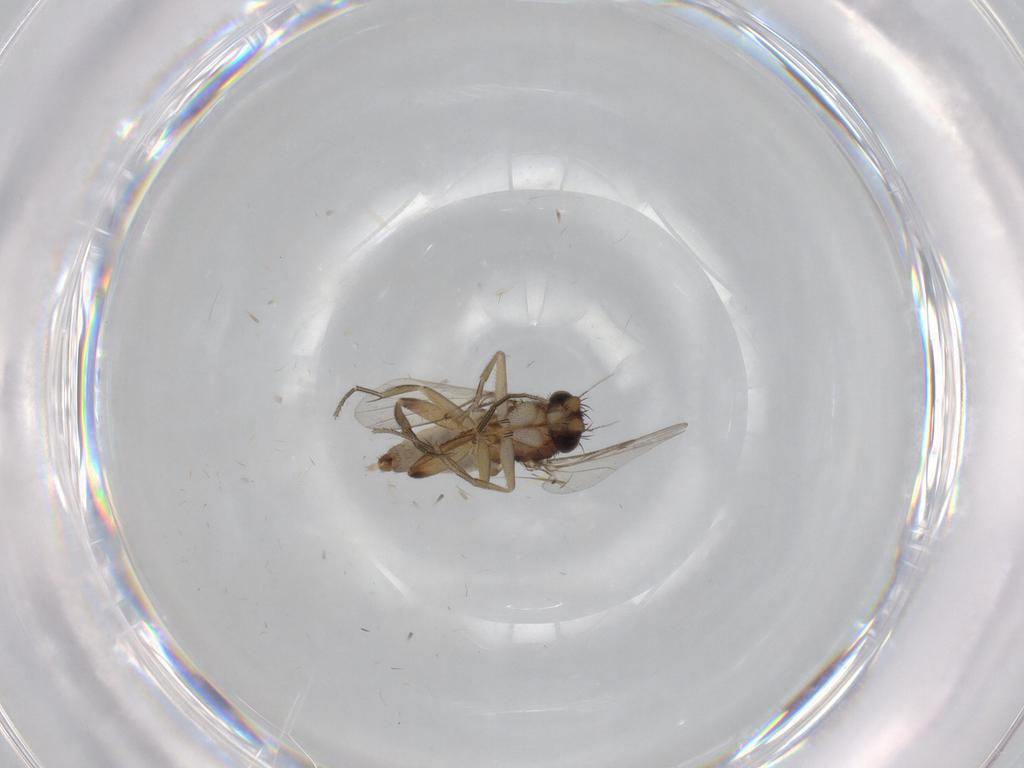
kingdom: Animalia
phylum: Arthropoda
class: Insecta
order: Diptera
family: Phoridae
